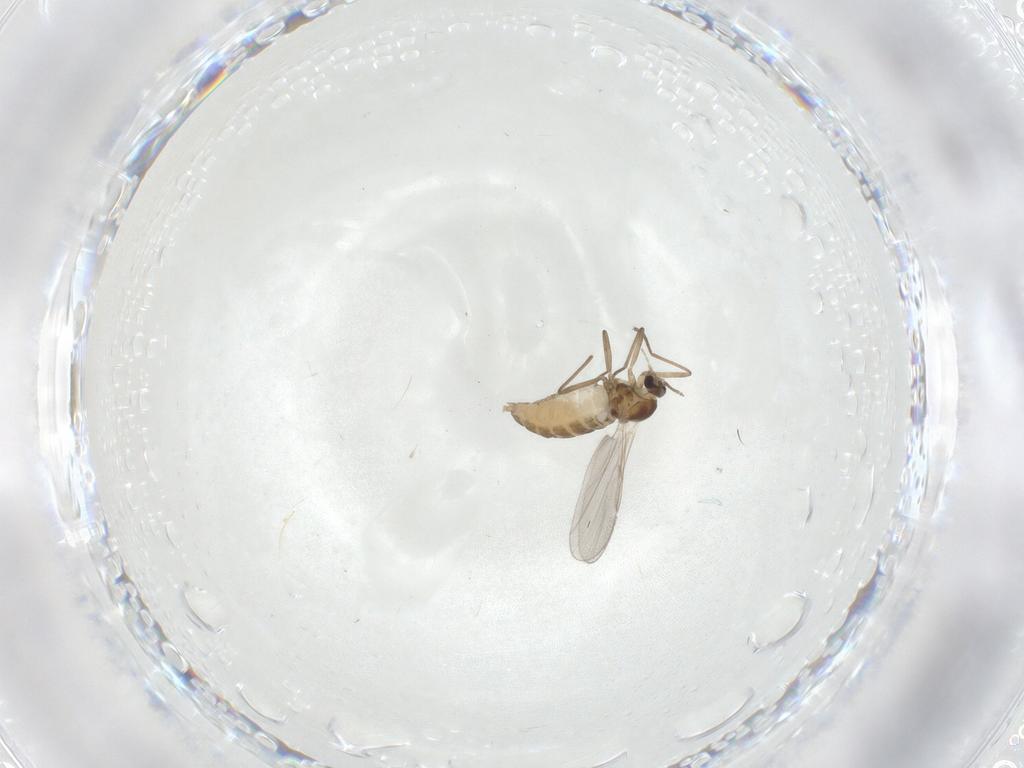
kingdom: Animalia
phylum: Arthropoda
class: Insecta
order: Diptera
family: Cecidomyiidae
